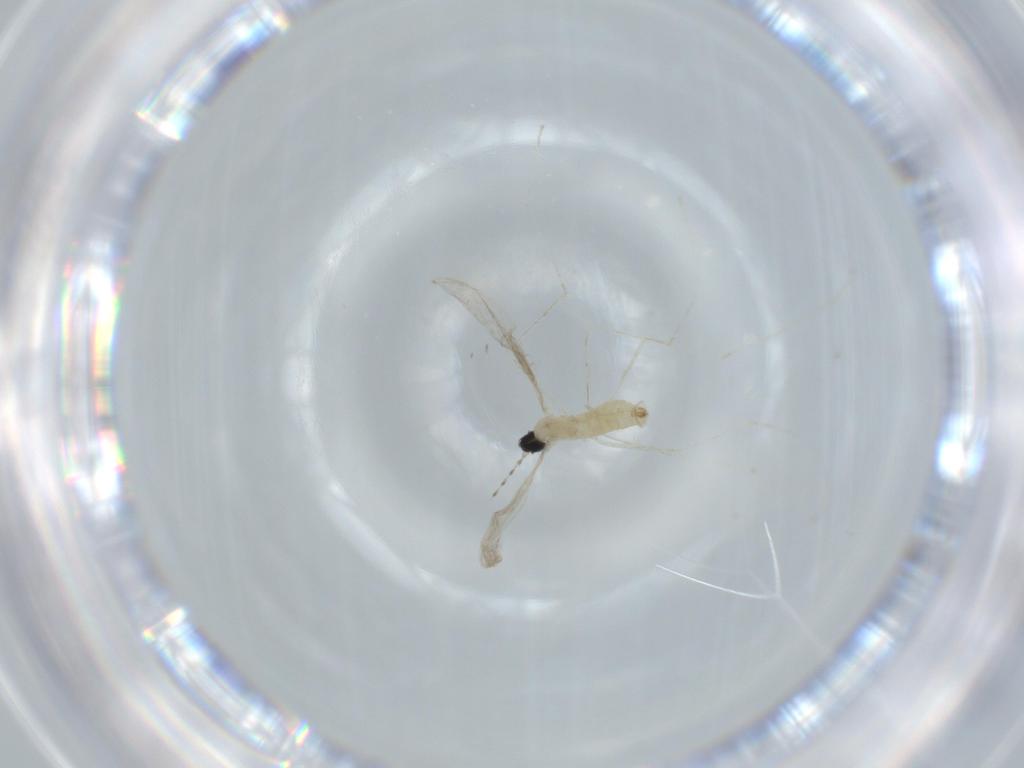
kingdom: Animalia
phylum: Arthropoda
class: Insecta
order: Diptera
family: Cecidomyiidae
